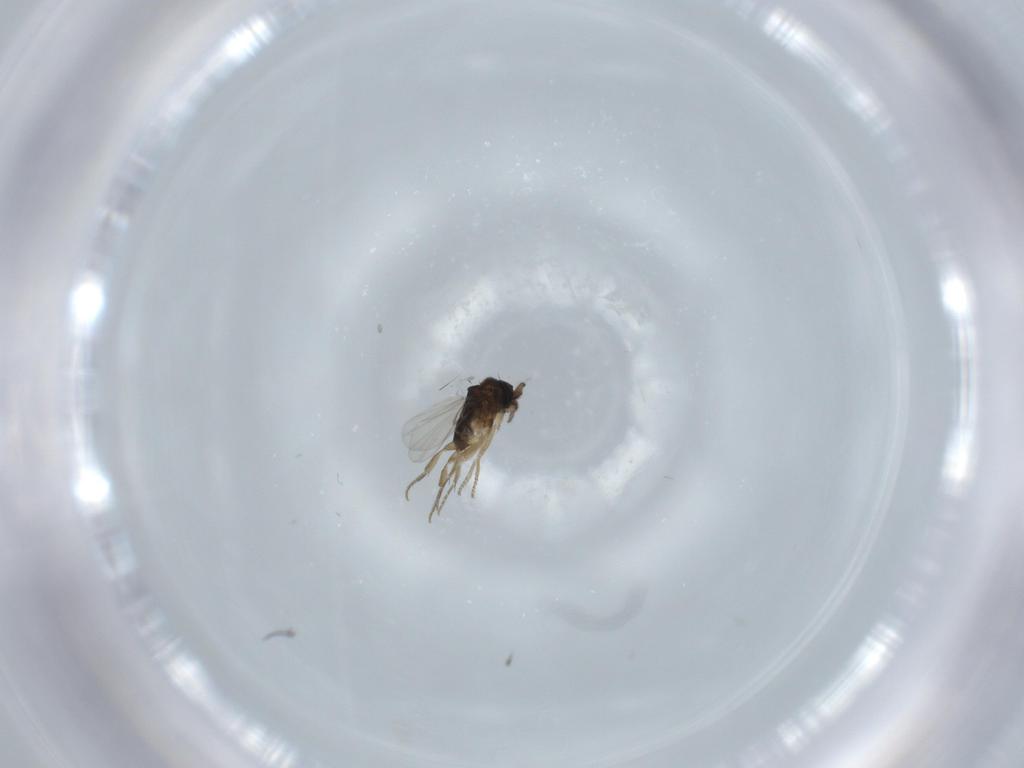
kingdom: Animalia
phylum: Arthropoda
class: Insecta
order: Diptera
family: Phoridae
